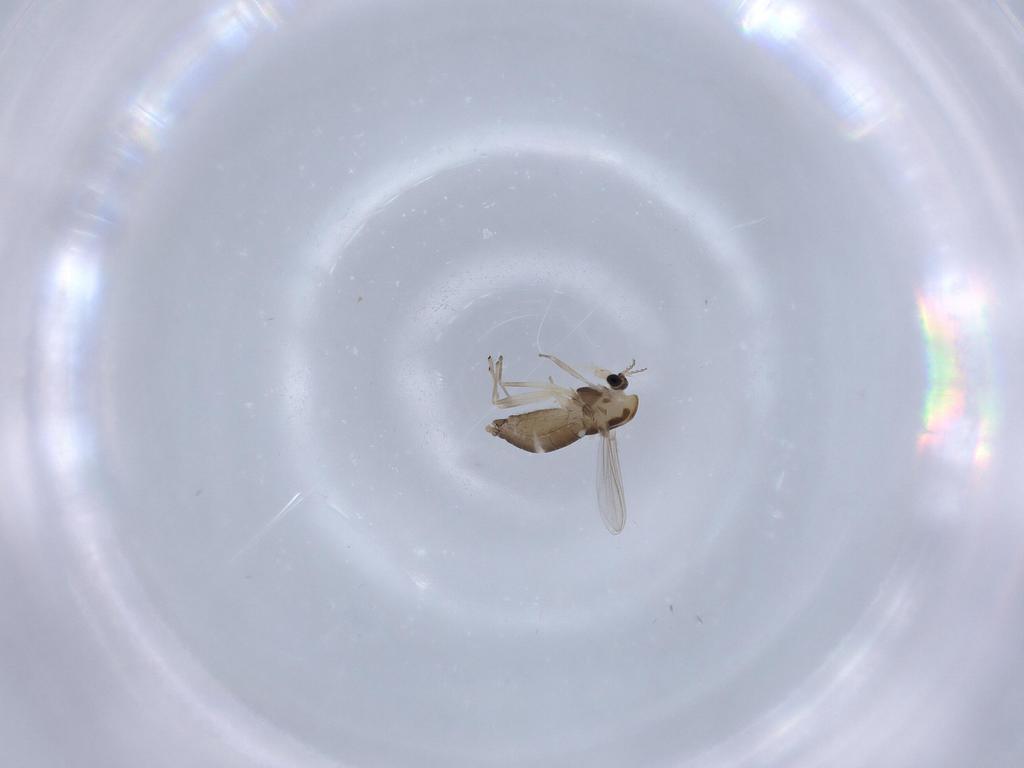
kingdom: Animalia
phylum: Arthropoda
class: Insecta
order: Diptera
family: Chironomidae
